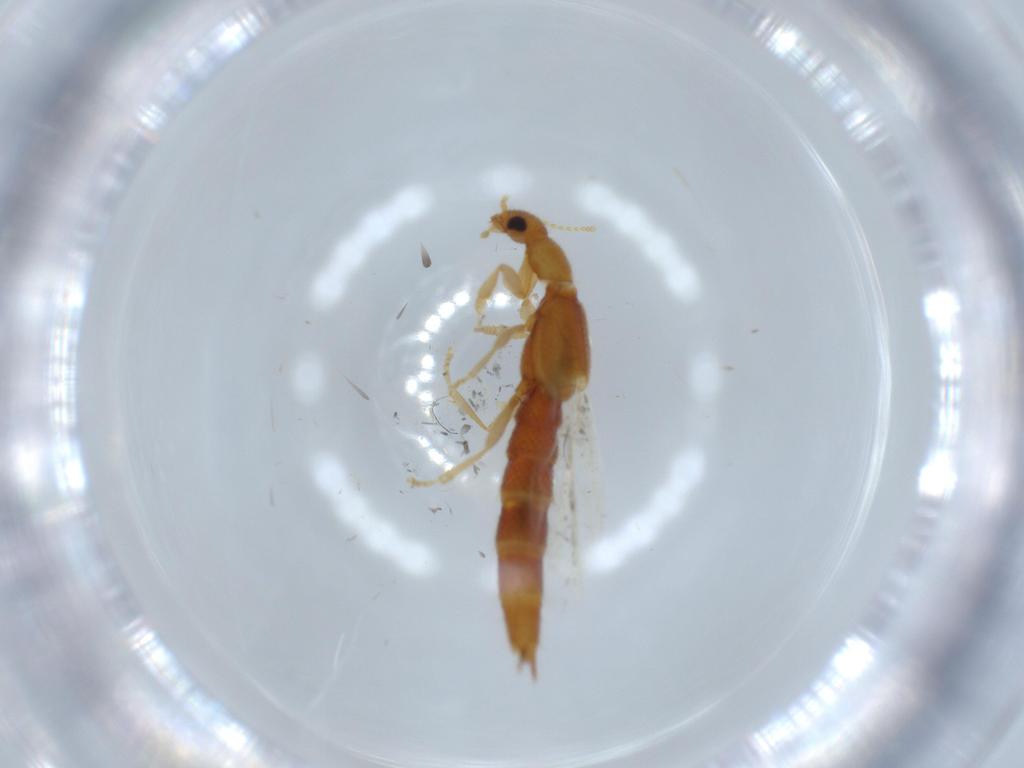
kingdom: Animalia
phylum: Arthropoda
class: Insecta
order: Coleoptera
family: Staphylinidae
